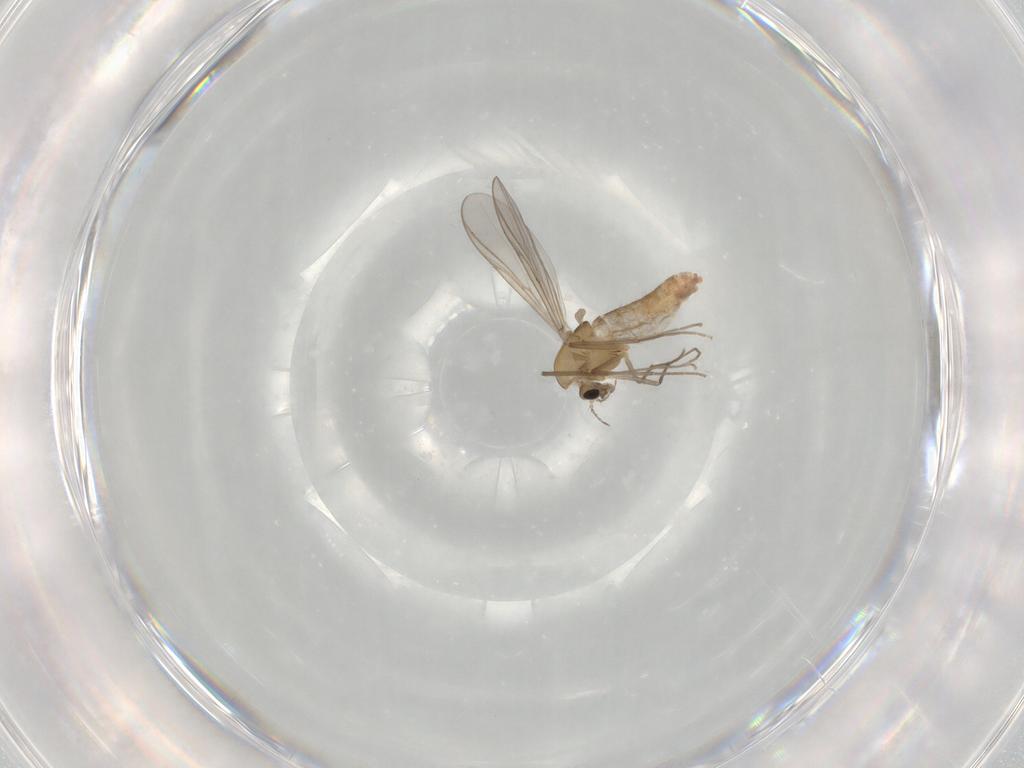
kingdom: Animalia
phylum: Arthropoda
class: Insecta
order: Diptera
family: Chironomidae
